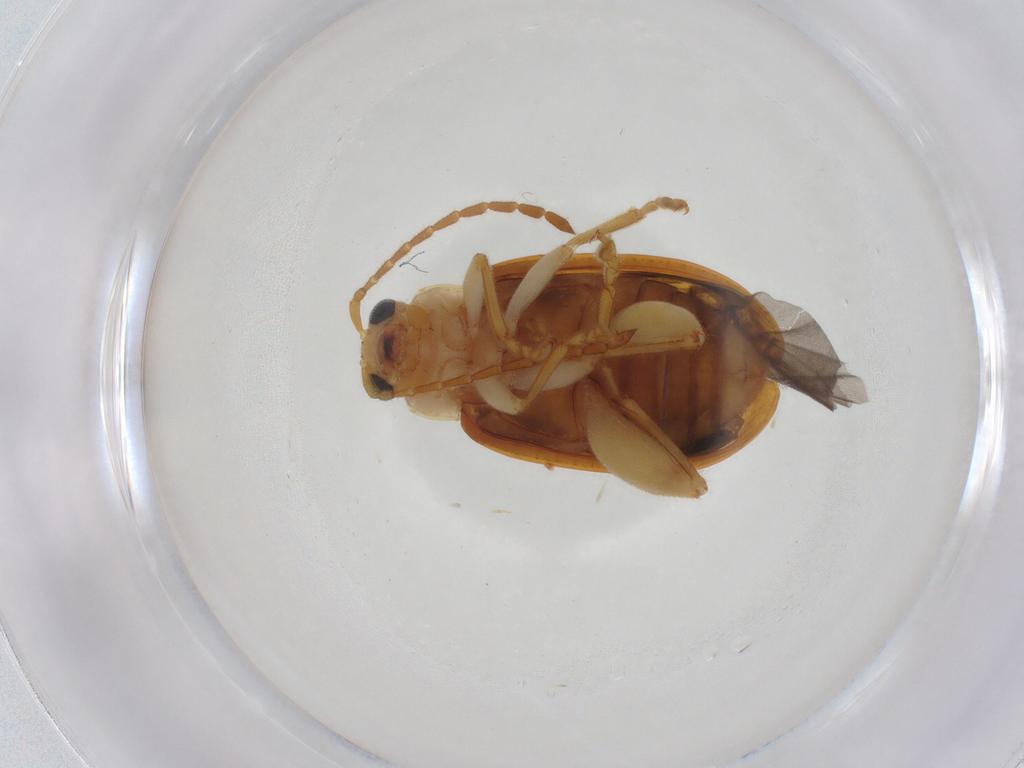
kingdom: Animalia
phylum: Arthropoda
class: Insecta
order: Coleoptera
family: Chrysomelidae
